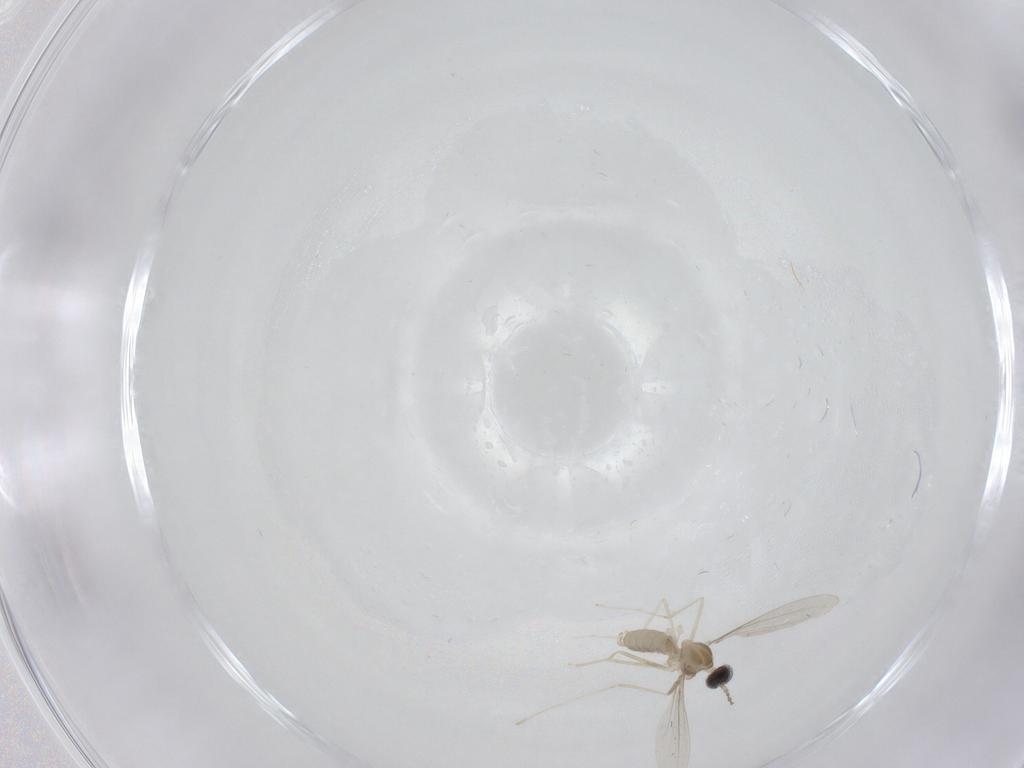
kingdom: Animalia
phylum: Arthropoda
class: Insecta
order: Diptera
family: Cecidomyiidae
